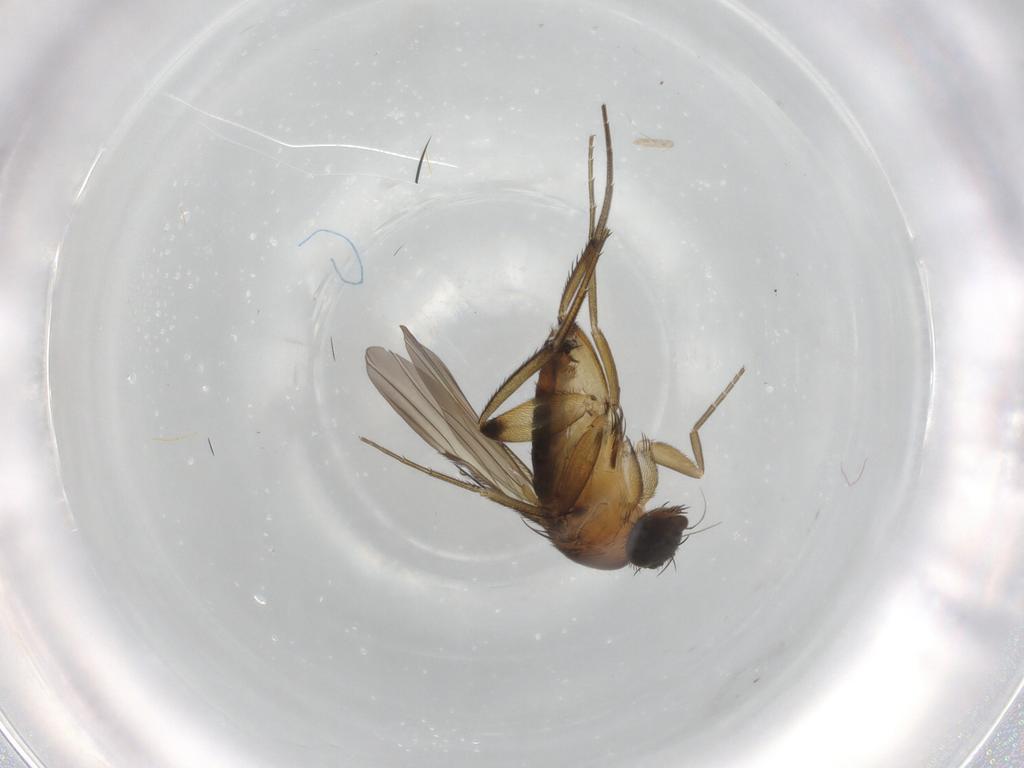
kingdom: Animalia
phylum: Arthropoda
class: Insecta
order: Diptera
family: Phoridae
